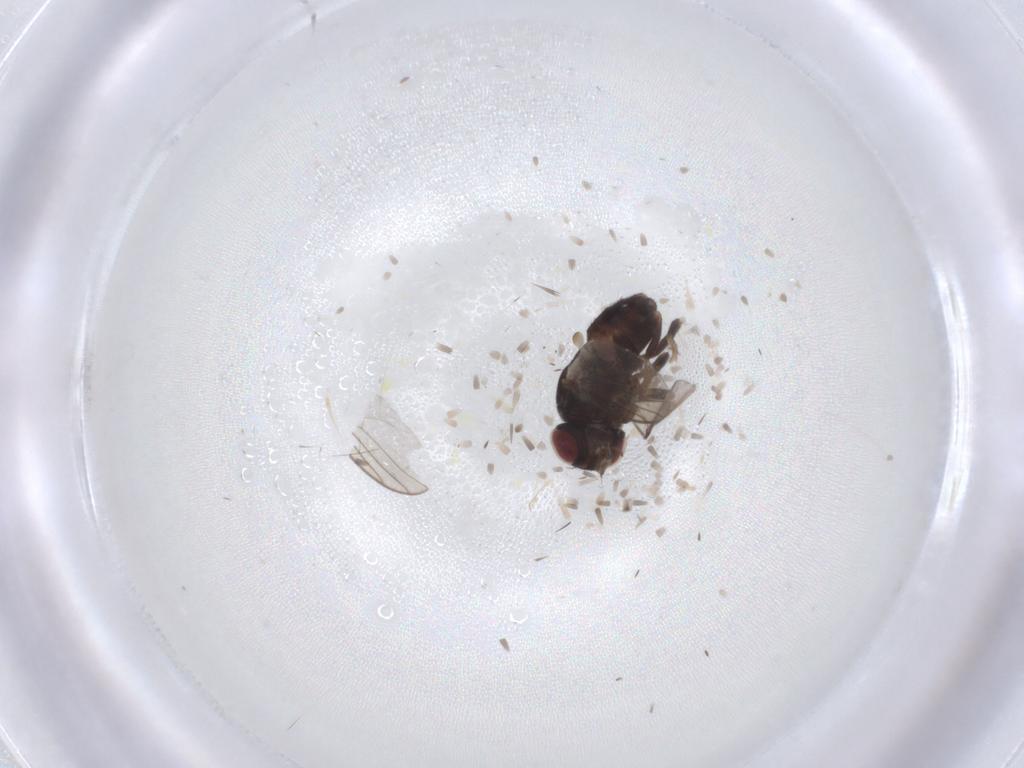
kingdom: Animalia
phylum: Arthropoda
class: Insecta
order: Diptera
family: Chloropidae
